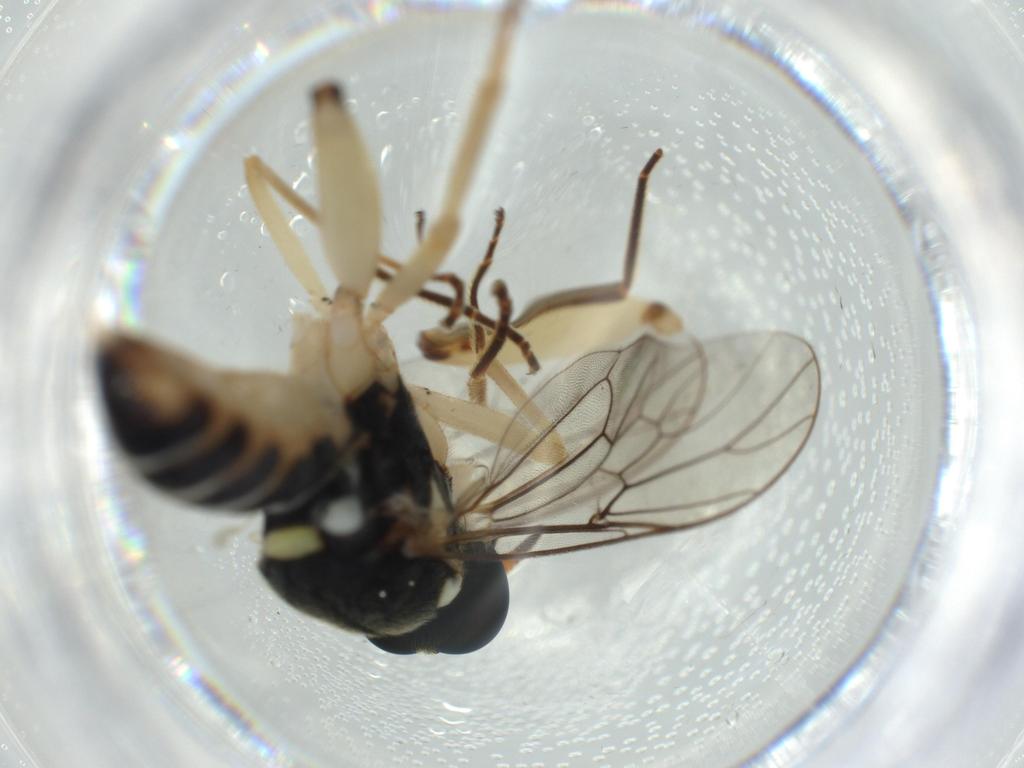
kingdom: Animalia
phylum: Arthropoda
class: Insecta
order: Diptera
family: Phoridae
